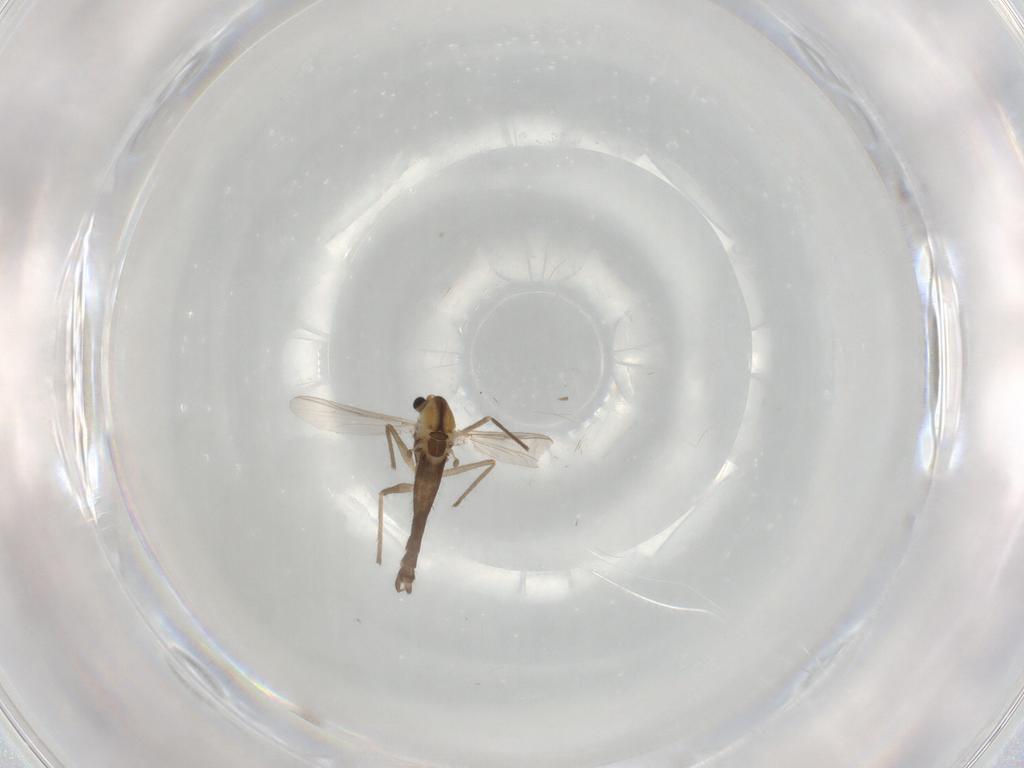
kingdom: Animalia
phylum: Arthropoda
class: Insecta
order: Diptera
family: Chironomidae
